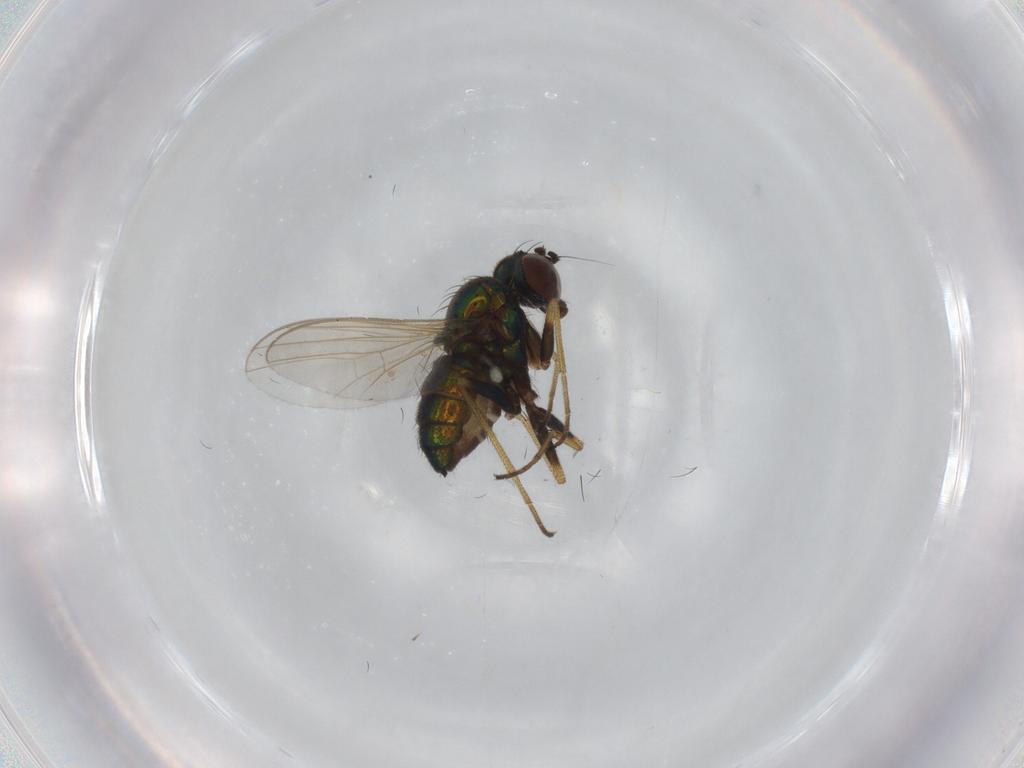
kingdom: Animalia
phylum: Arthropoda
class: Insecta
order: Diptera
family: Dolichopodidae
